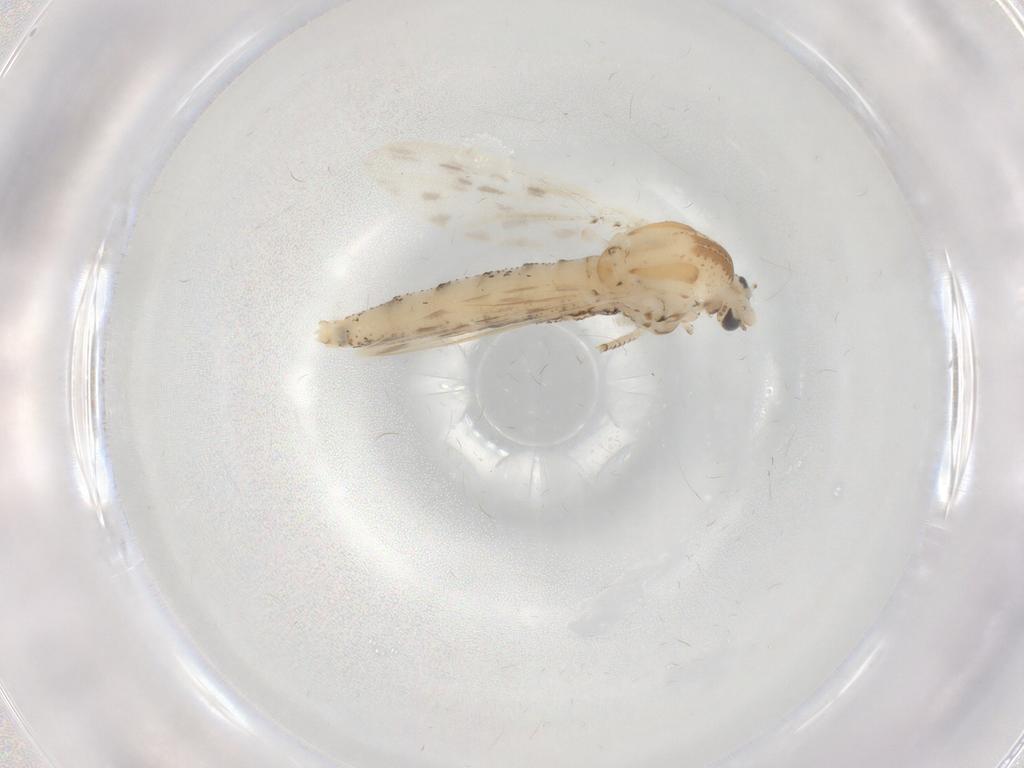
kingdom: Animalia
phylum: Arthropoda
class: Insecta
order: Diptera
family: Chaoboridae
